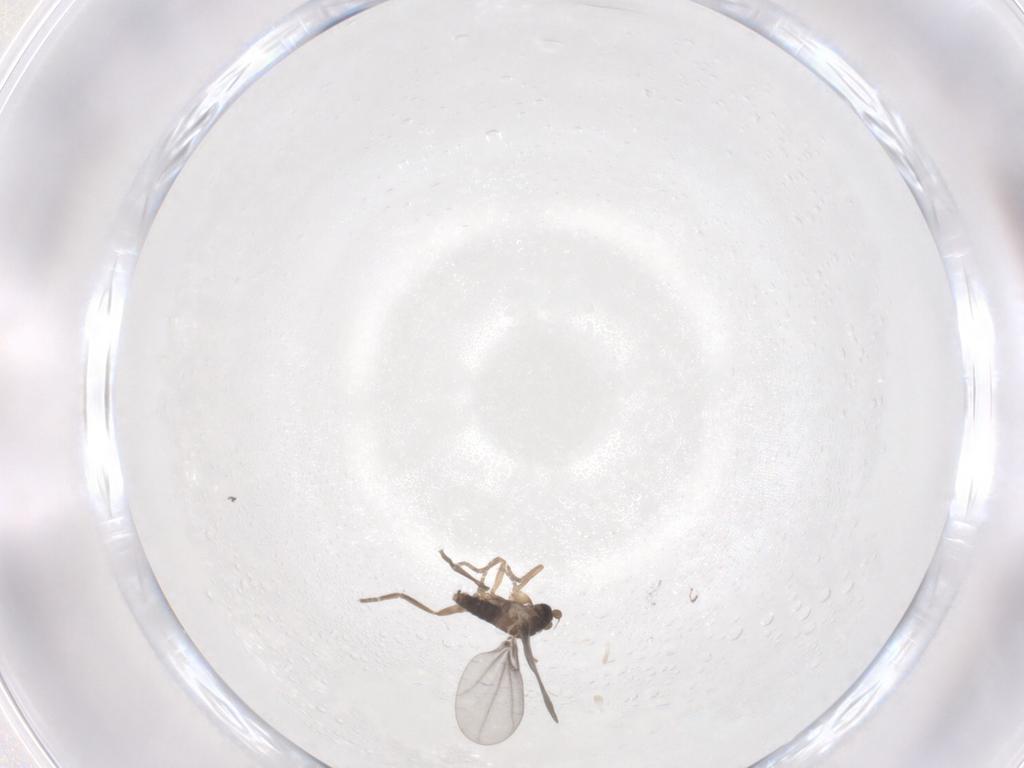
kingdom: Animalia
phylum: Arthropoda
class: Insecta
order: Diptera
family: Phoridae
